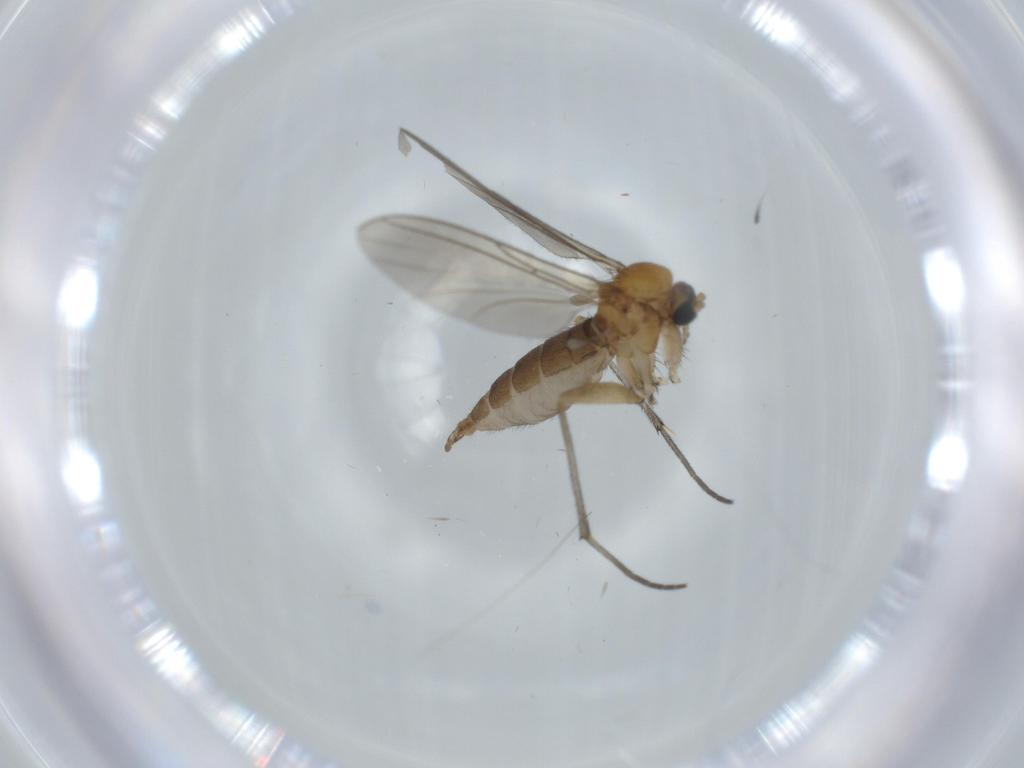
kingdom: Animalia
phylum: Arthropoda
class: Insecta
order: Diptera
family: Sciaridae
